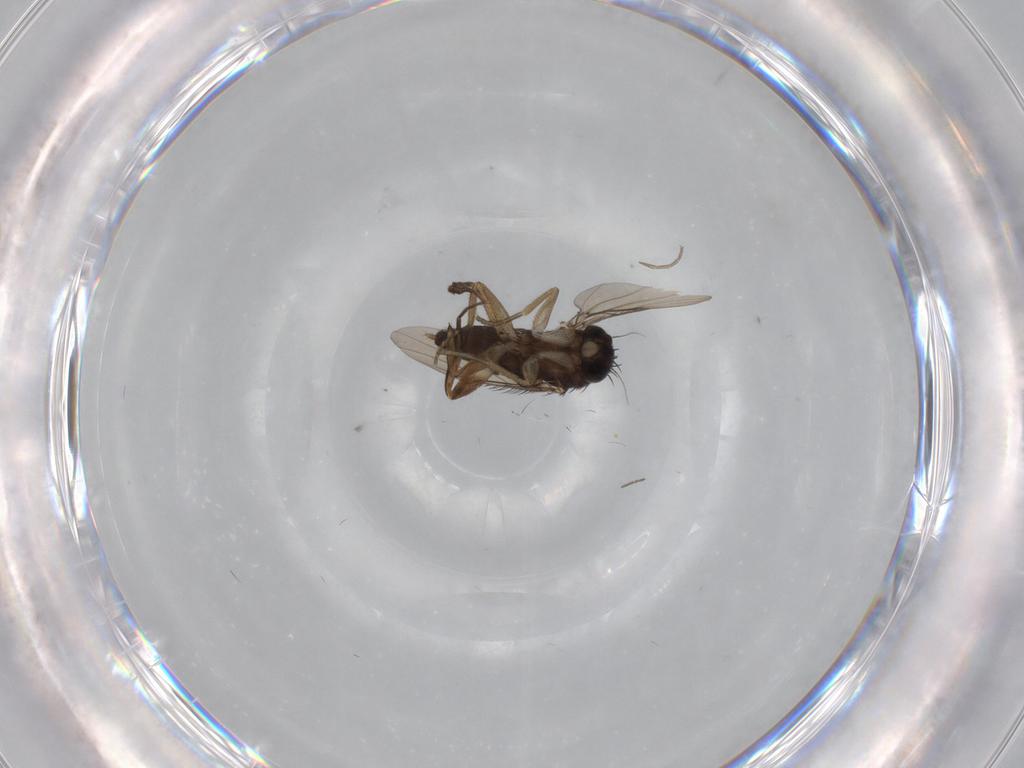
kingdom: Animalia
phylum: Arthropoda
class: Insecta
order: Diptera
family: Phoridae
